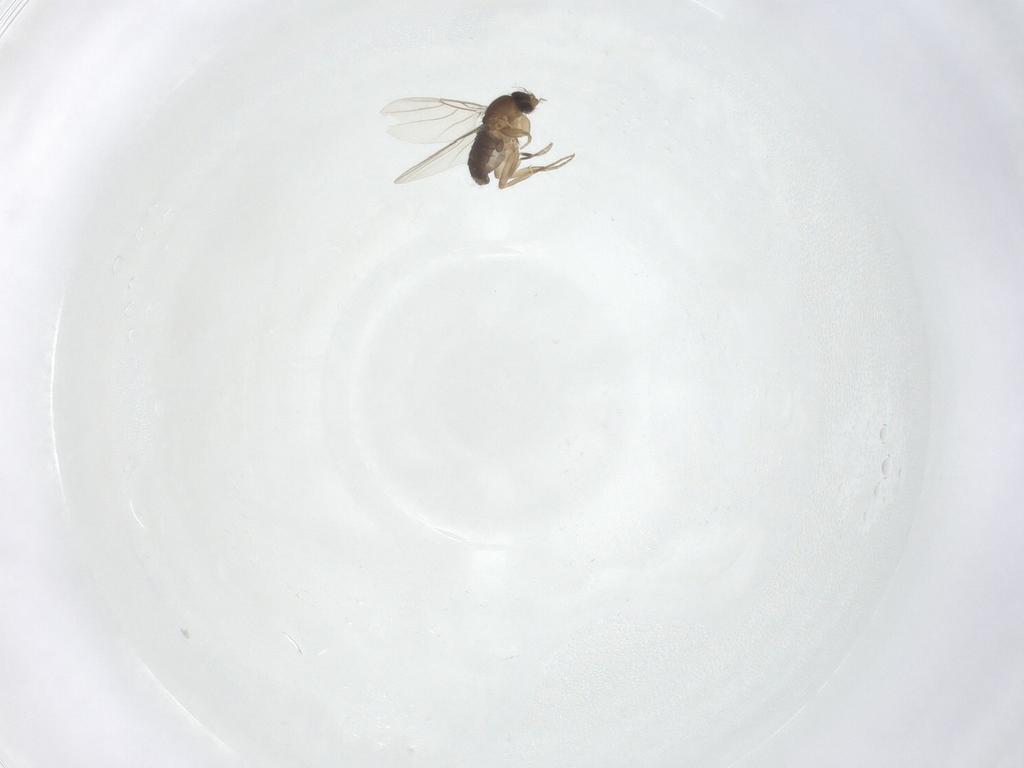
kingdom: Animalia
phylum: Arthropoda
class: Insecta
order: Diptera
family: Phoridae
